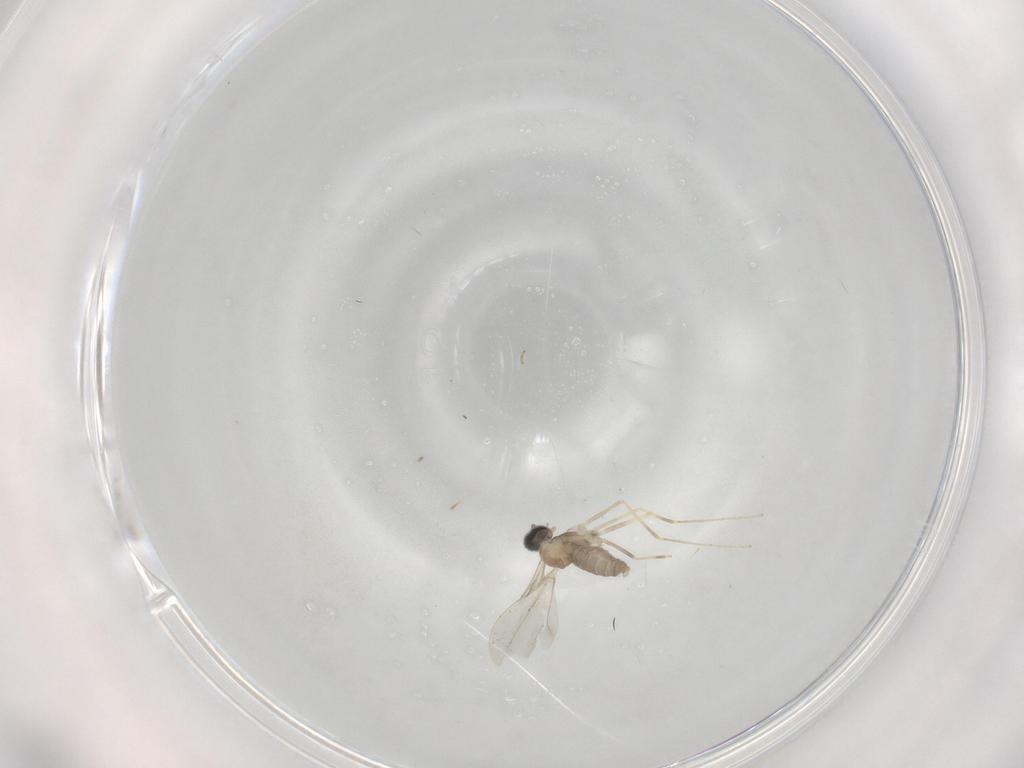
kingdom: Animalia
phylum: Arthropoda
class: Insecta
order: Diptera
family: Cecidomyiidae
